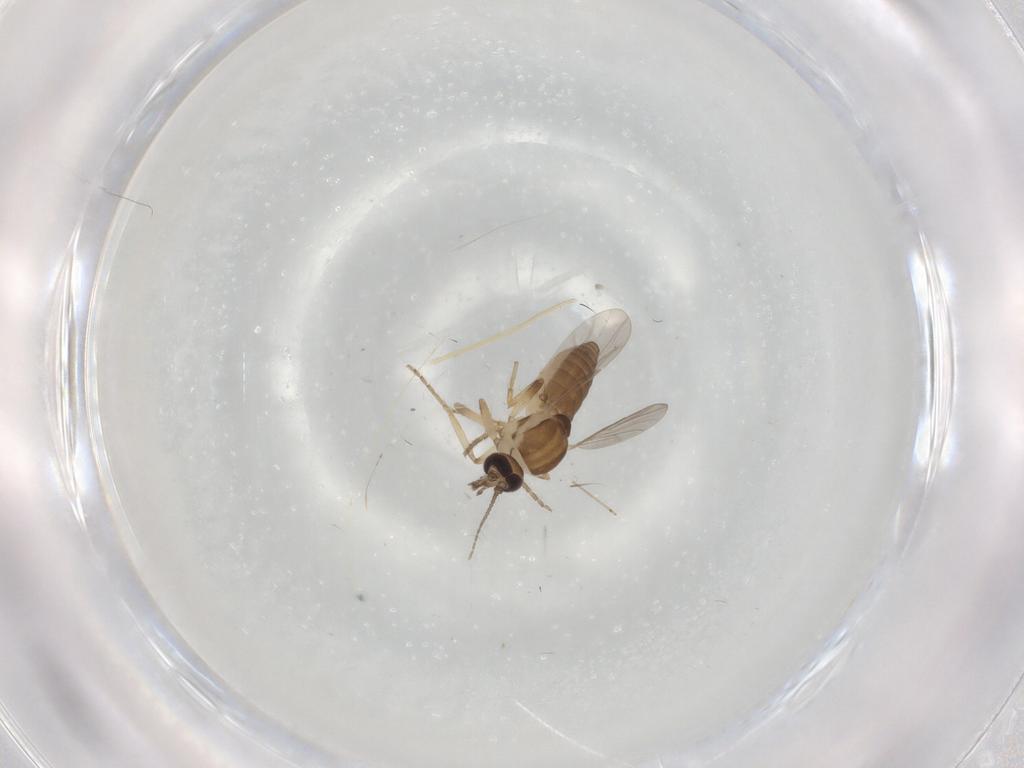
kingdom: Animalia
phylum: Arthropoda
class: Insecta
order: Diptera
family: Ceratopogonidae
